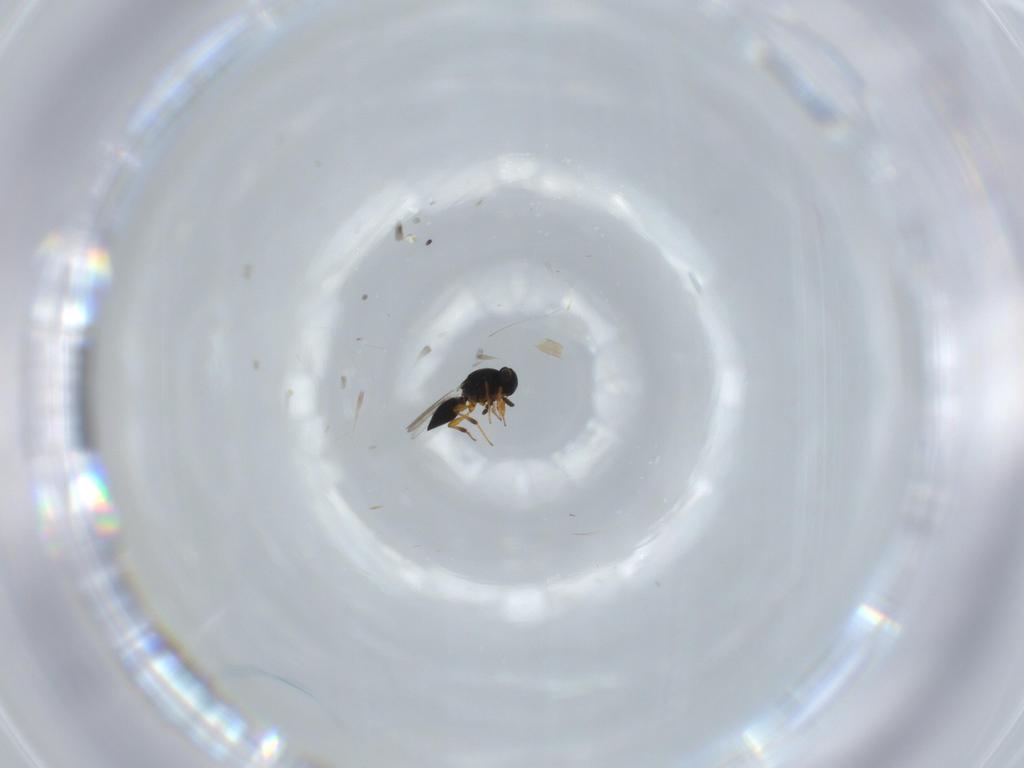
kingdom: Animalia
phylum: Arthropoda
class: Insecta
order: Hymenoptera
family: Platygastridae
